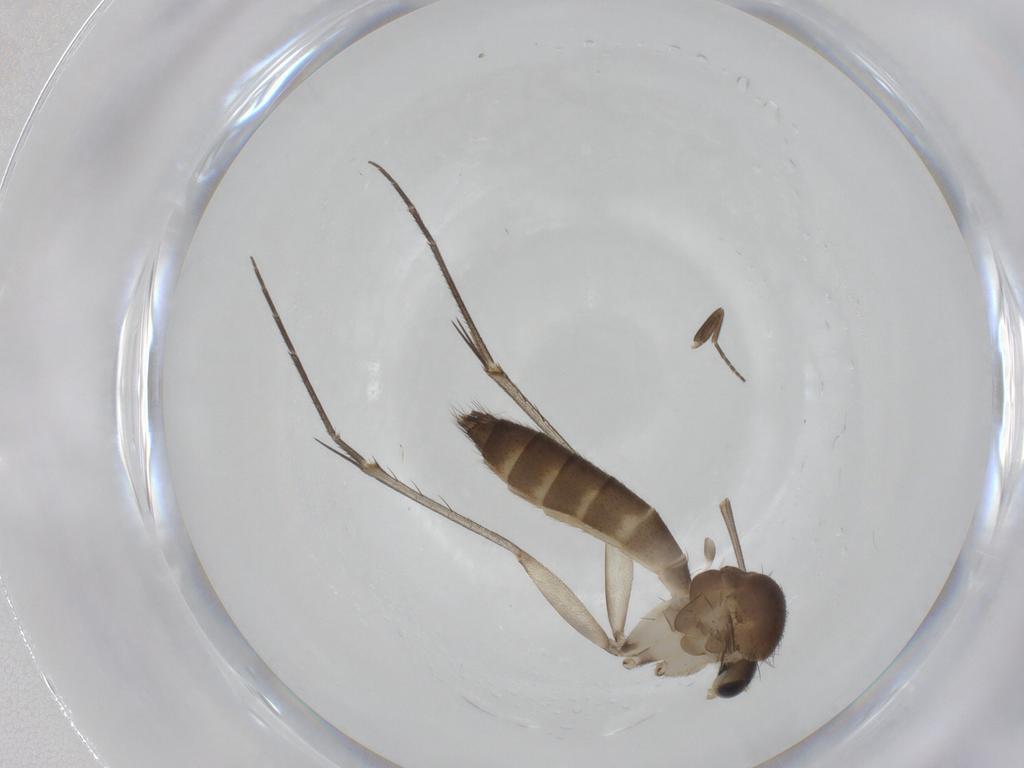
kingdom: Animalia
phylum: Arthropoda
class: Insecta
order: Diptera
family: Mycetophilidae
